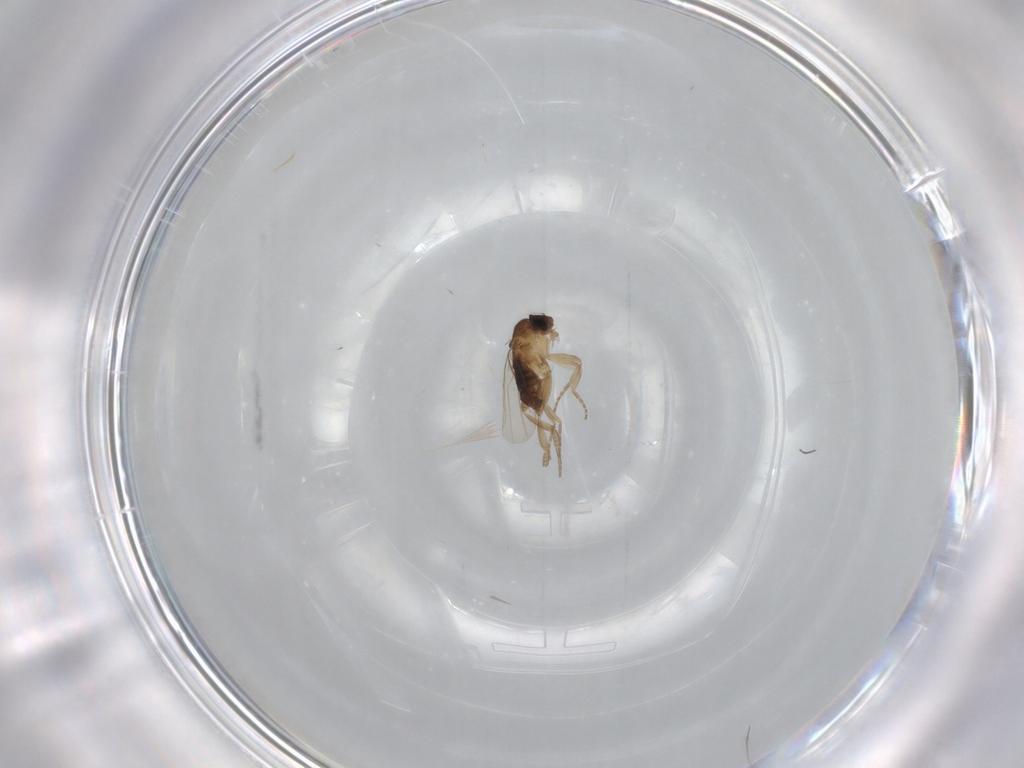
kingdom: Animalia
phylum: Arthropoda
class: Insecta
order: Diptera
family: Phoridae
